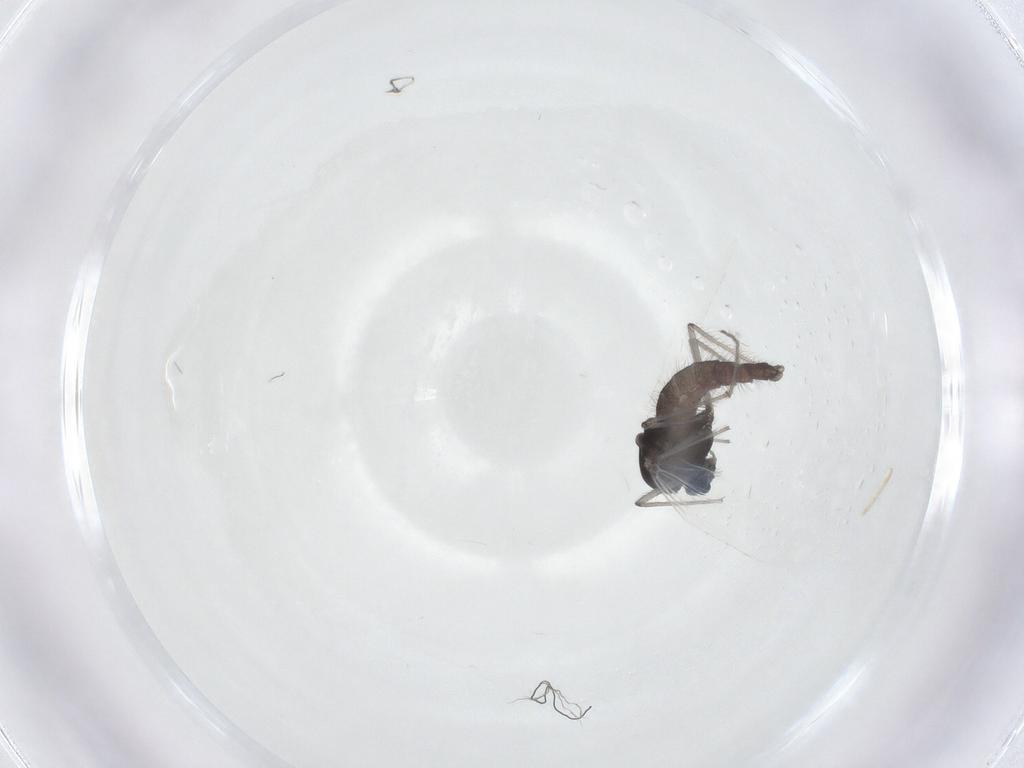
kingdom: Animalia
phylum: Arthropoda
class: Insecta
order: Diptera
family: Chironomidae
